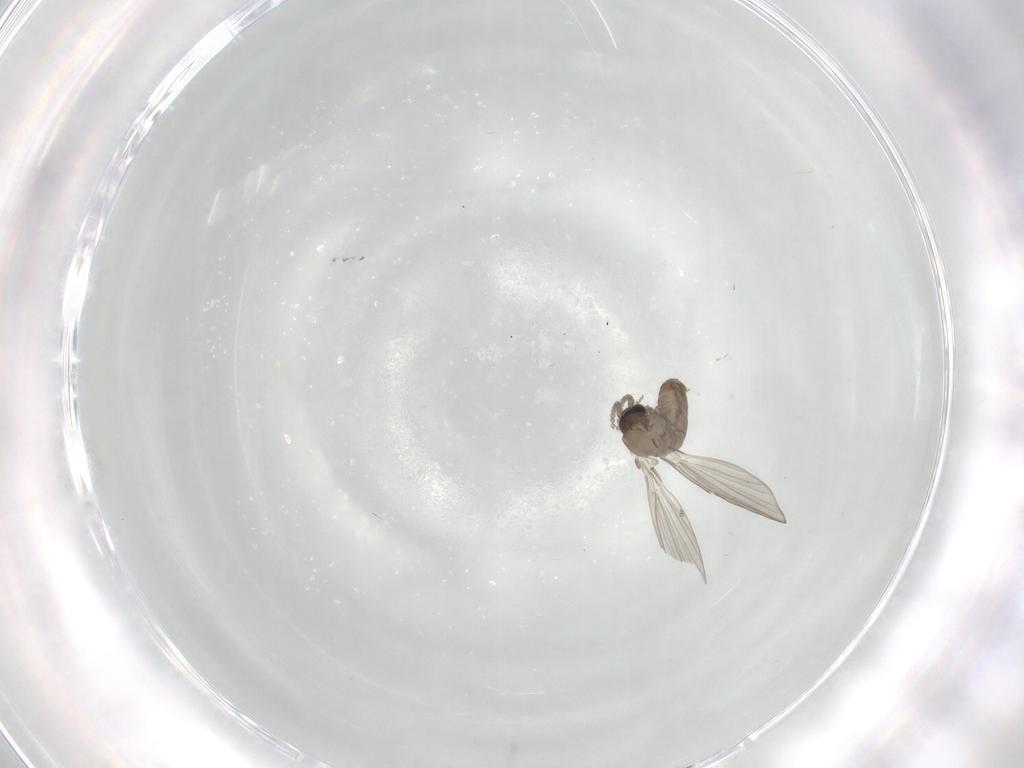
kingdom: Animalia
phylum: Arthropoda
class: Insecta
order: Diptera
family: Psychodidae
